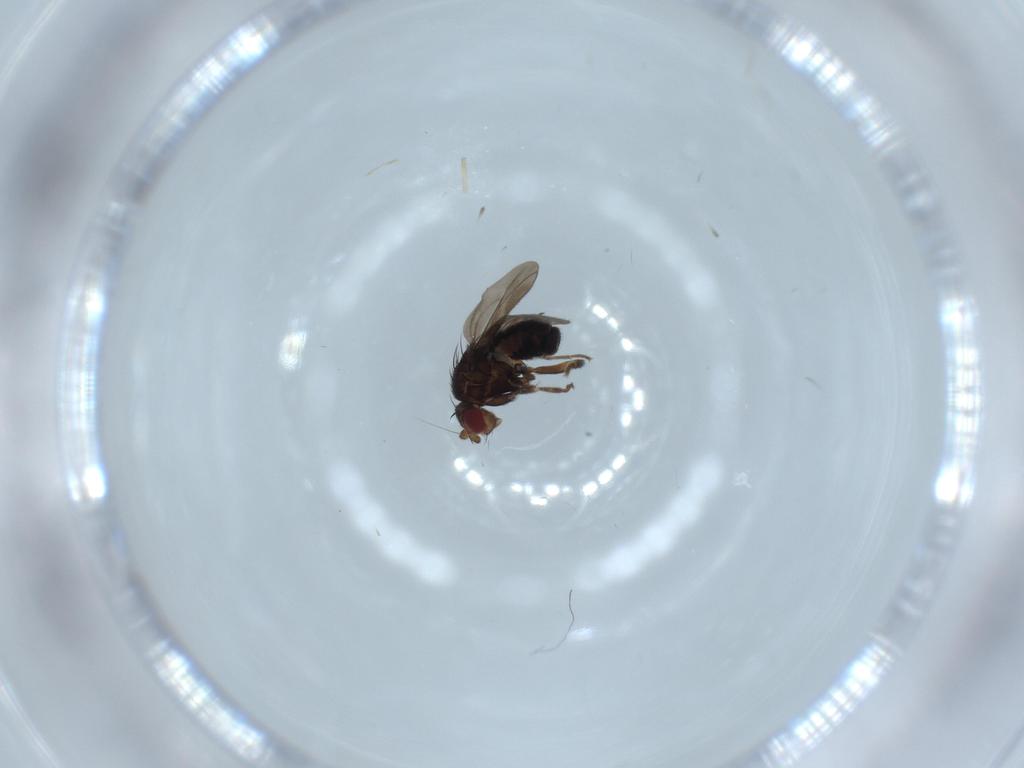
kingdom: Animalia
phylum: Arthropoda
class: Insecta
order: Diptera
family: Sphaeroceridae
